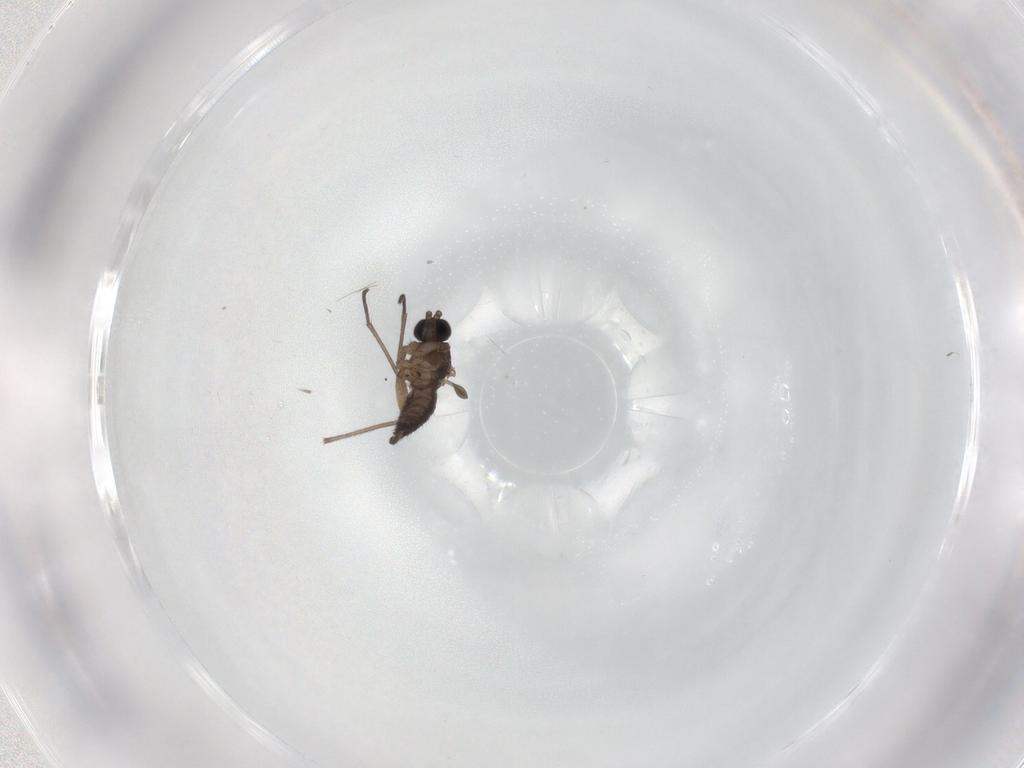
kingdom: Animalia
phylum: Arthropoda
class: Insecta
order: Diptera
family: Sciaridae
